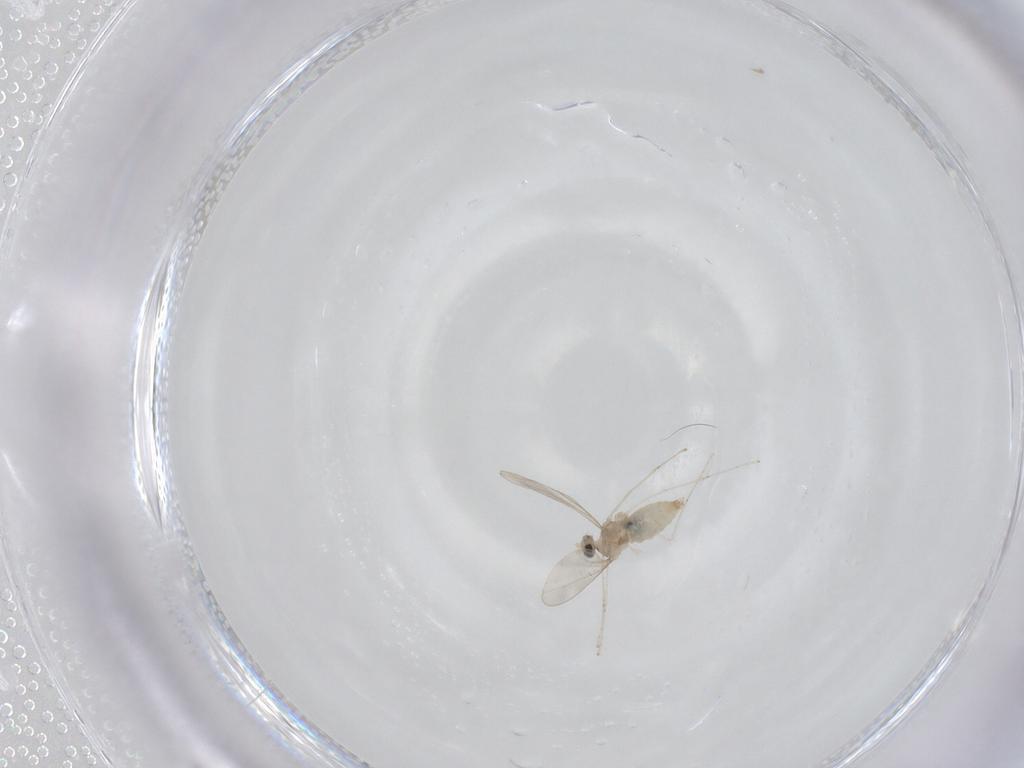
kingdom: Animalia
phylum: Arthropoda
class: Insecta
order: Diptera
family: Cecidomyiidae
